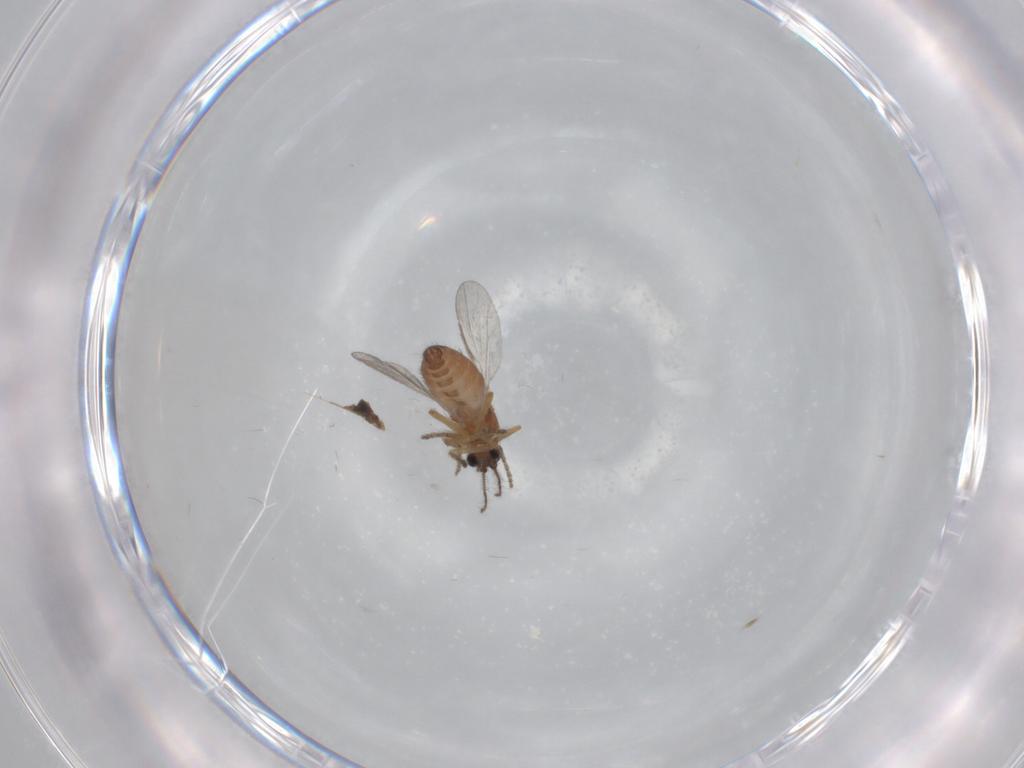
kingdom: Animalia
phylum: Arthropoda
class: Insecta
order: Diptera
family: Ceratopogonidae
